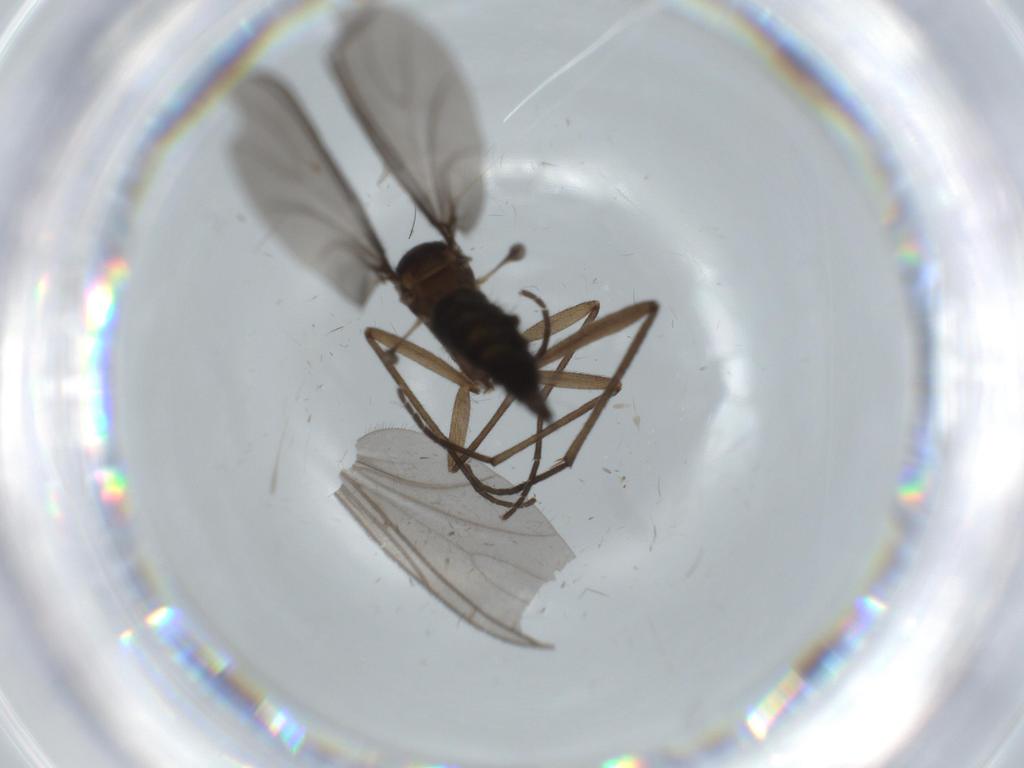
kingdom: Animalia
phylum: Arthropoda
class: Insecta
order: Diptera
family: Sciaridae
